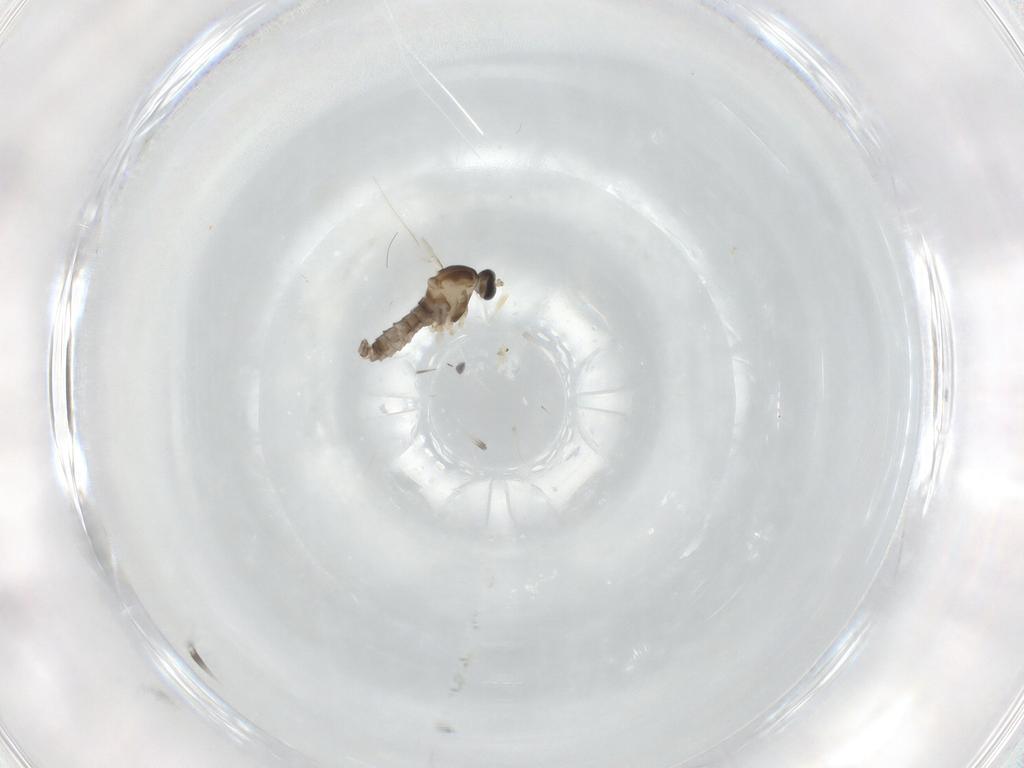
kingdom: Animalia
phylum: Arthropoda
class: Insecta
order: Diptera
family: Cecidomyiidae
